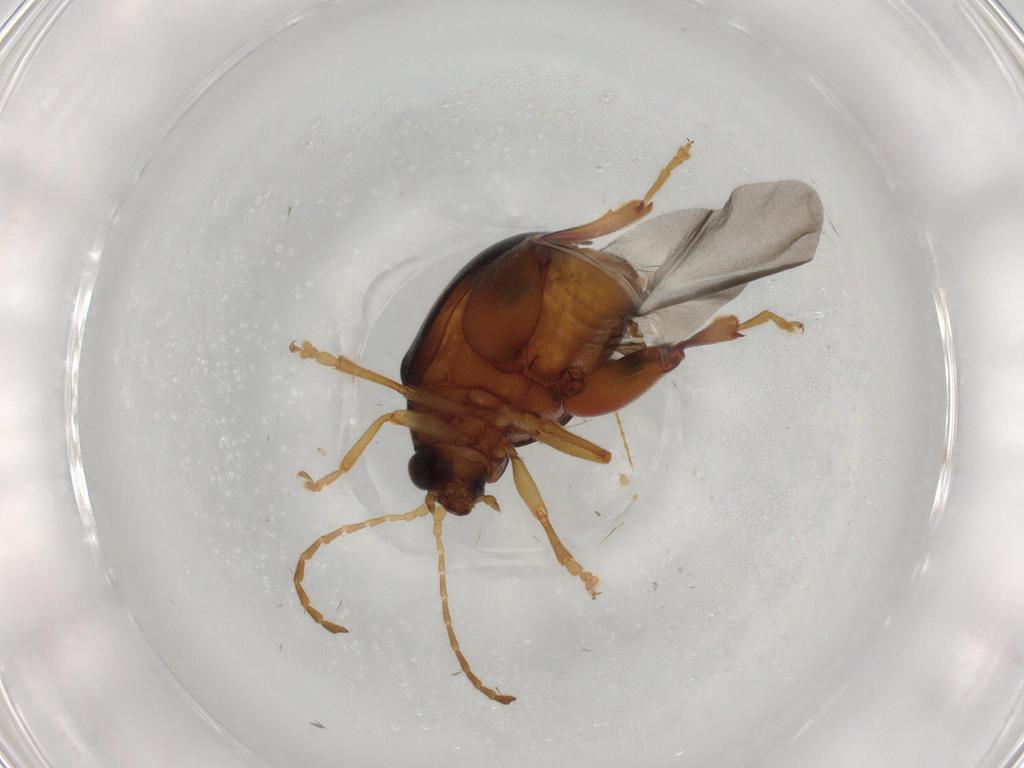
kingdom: Animalia
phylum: Arthropoda
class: Insecta
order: Coleoptera
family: Chrysomelidae
